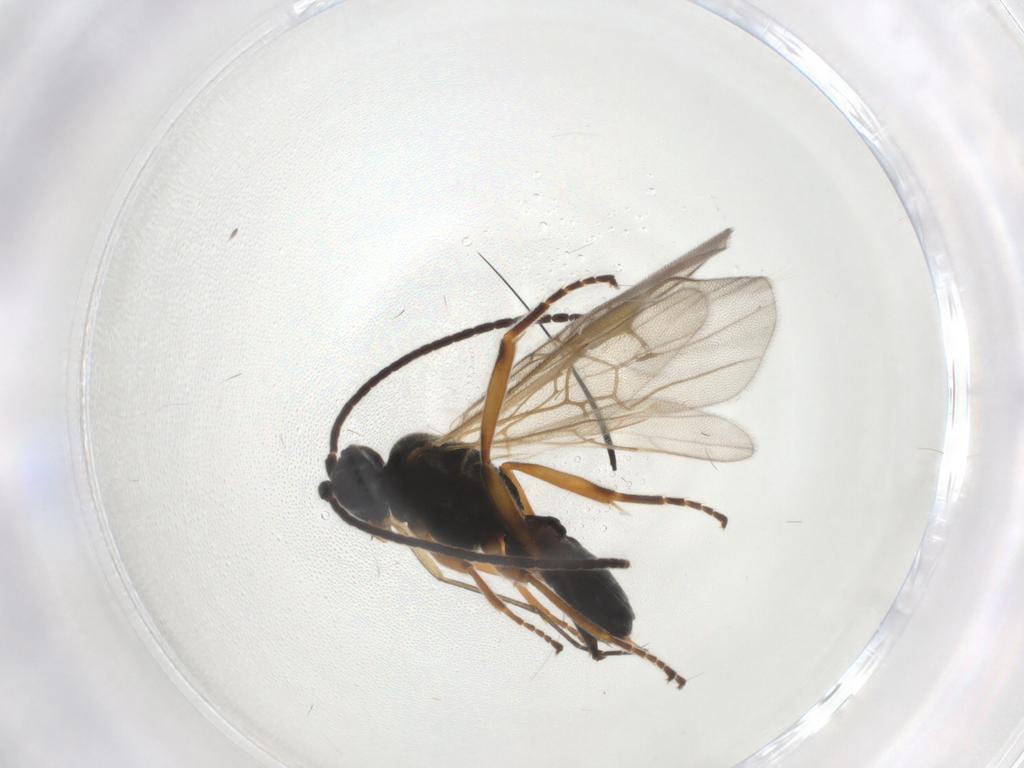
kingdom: Animalia
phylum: Arthropoda
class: Insecta
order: Hymenoptera
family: Braconidae
